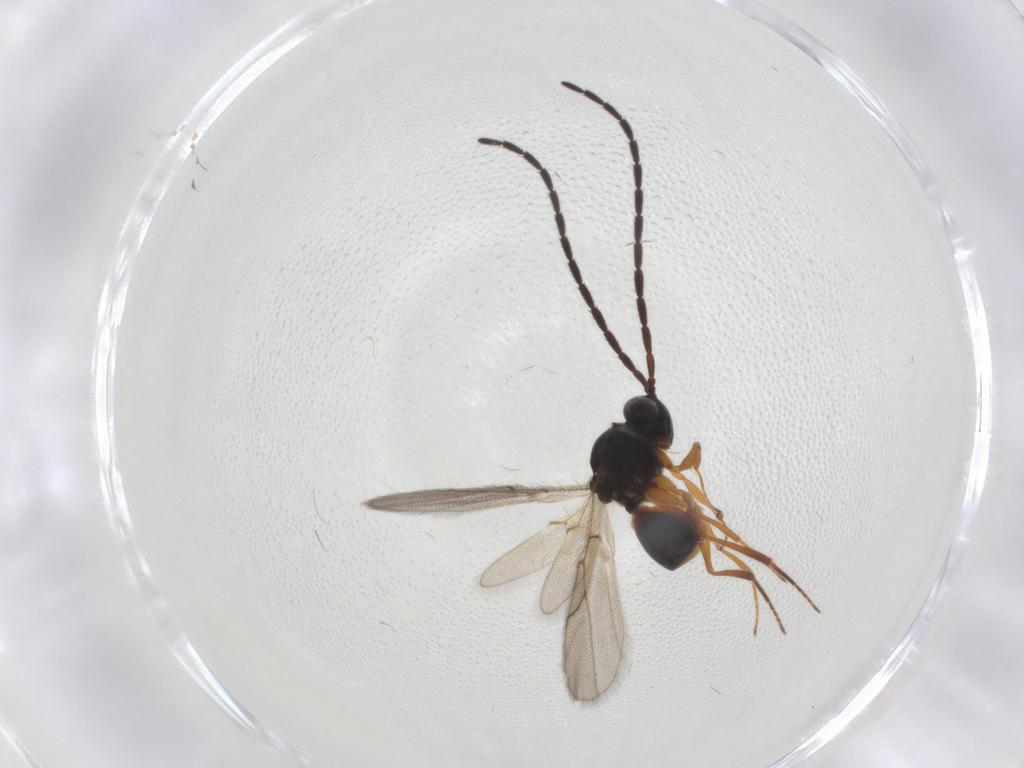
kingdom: Animalia
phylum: Arthropoda
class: Insecta
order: Hymenoptera
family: Figitidae
